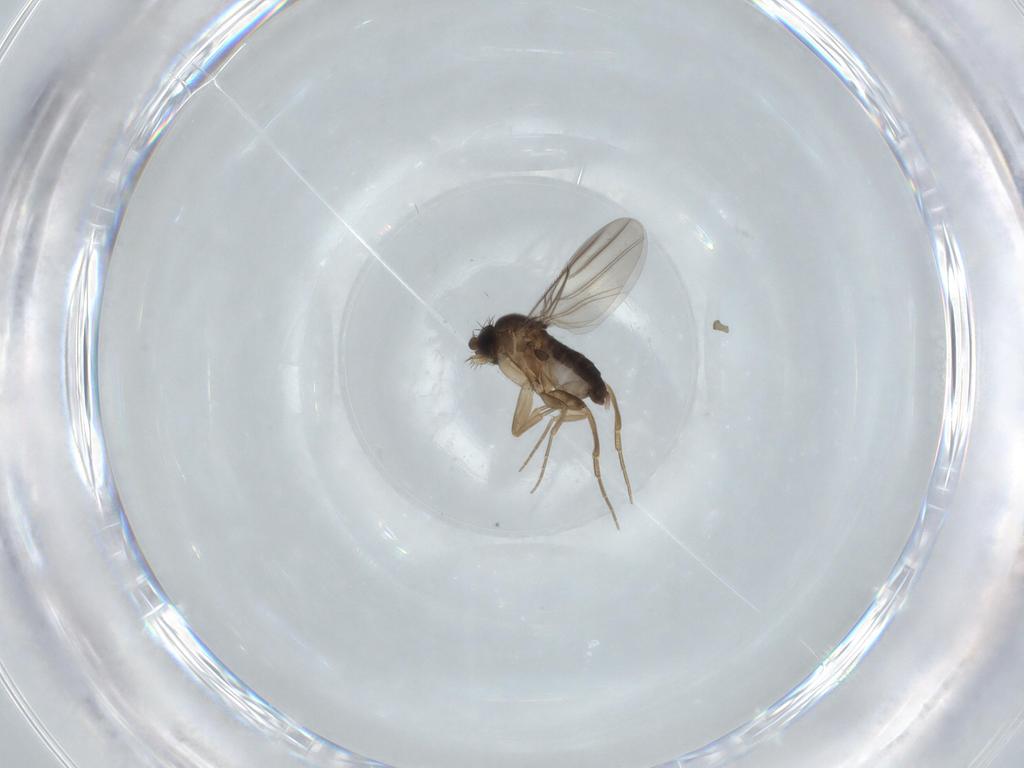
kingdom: Animalia
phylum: Arthropoda
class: Insecta
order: Diptera
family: Phoridae
